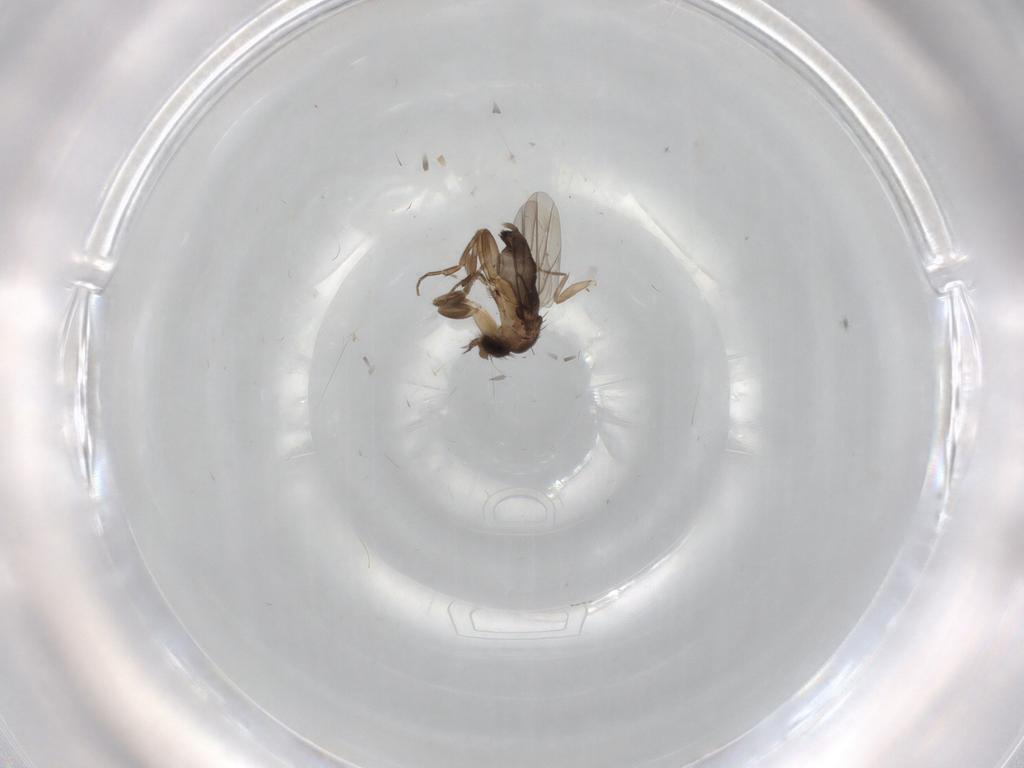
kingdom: Animalia
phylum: Arthropoda
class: Insecta
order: Diptera
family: Phoridae
